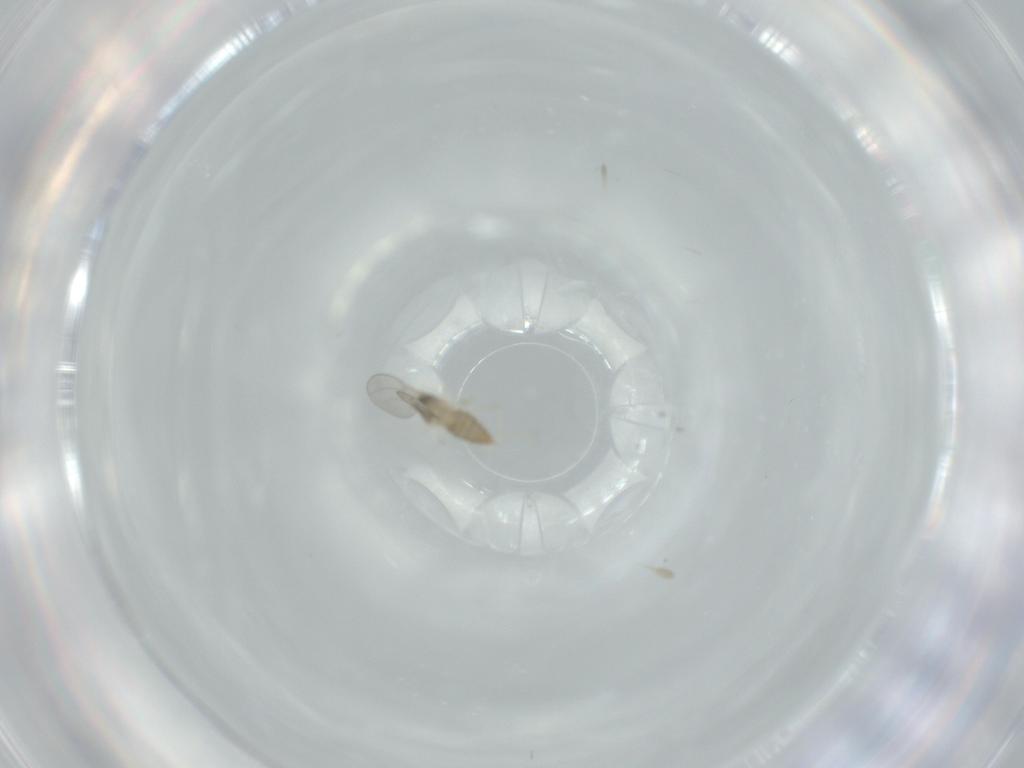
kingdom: Animalia
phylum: Arthropoda
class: Insecta
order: Diptera
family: Cecidomyiidae
